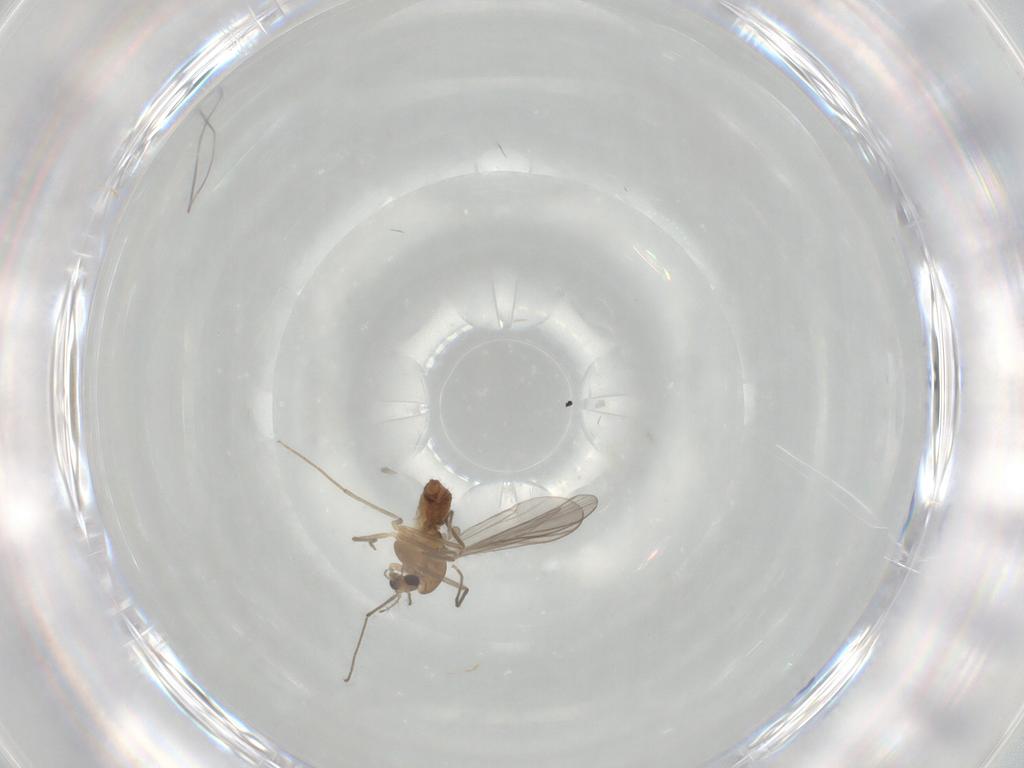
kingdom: Animalia
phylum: Arthropoda
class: Insecta
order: Diptera
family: Chironomidae
